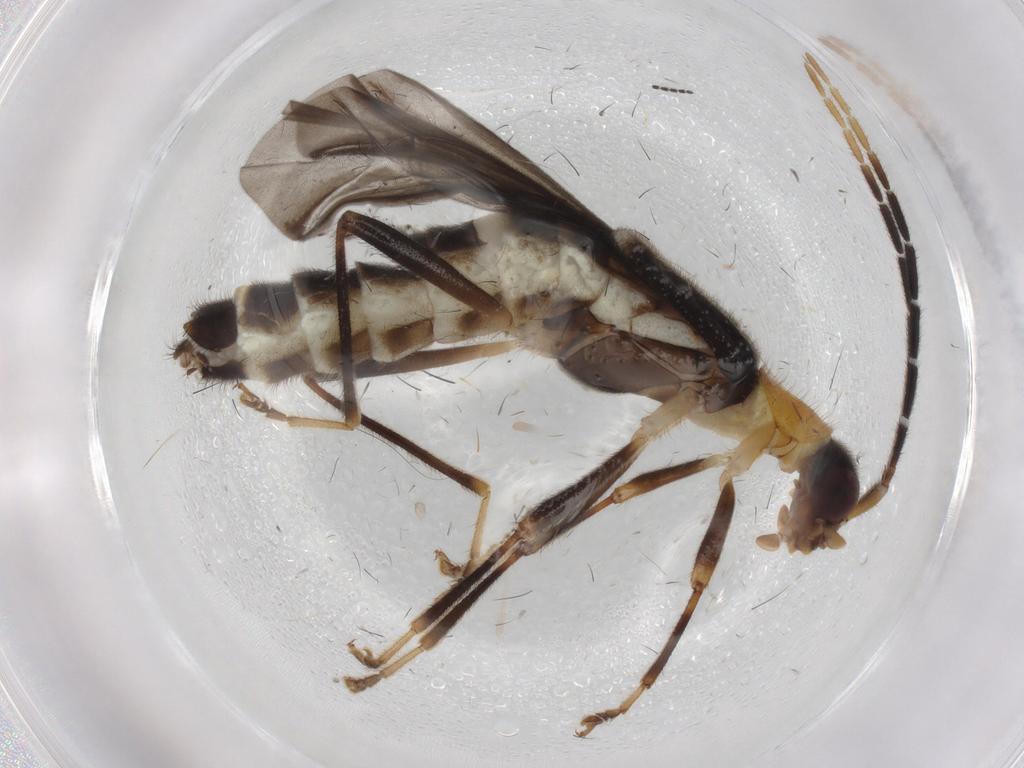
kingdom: Animalia
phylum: Arthropoda
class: Insecta
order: Coleoptera
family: Cantharidae
